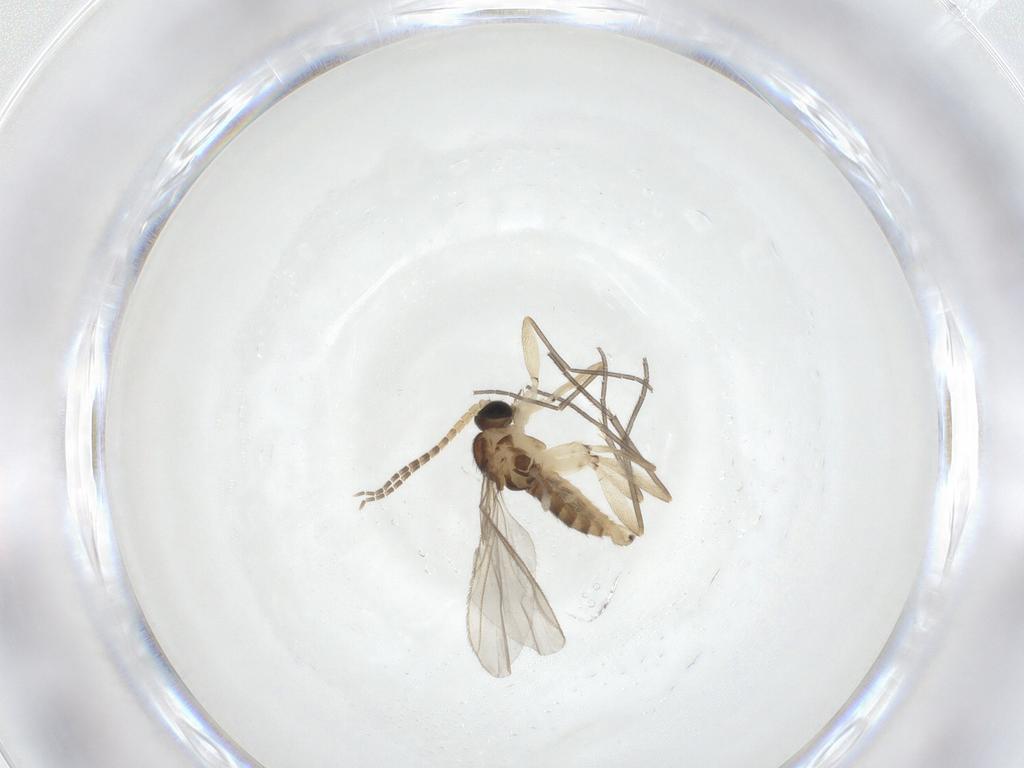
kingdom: Animalia
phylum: Arthropoda
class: Insecta
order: Diptera
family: Sciaridae
